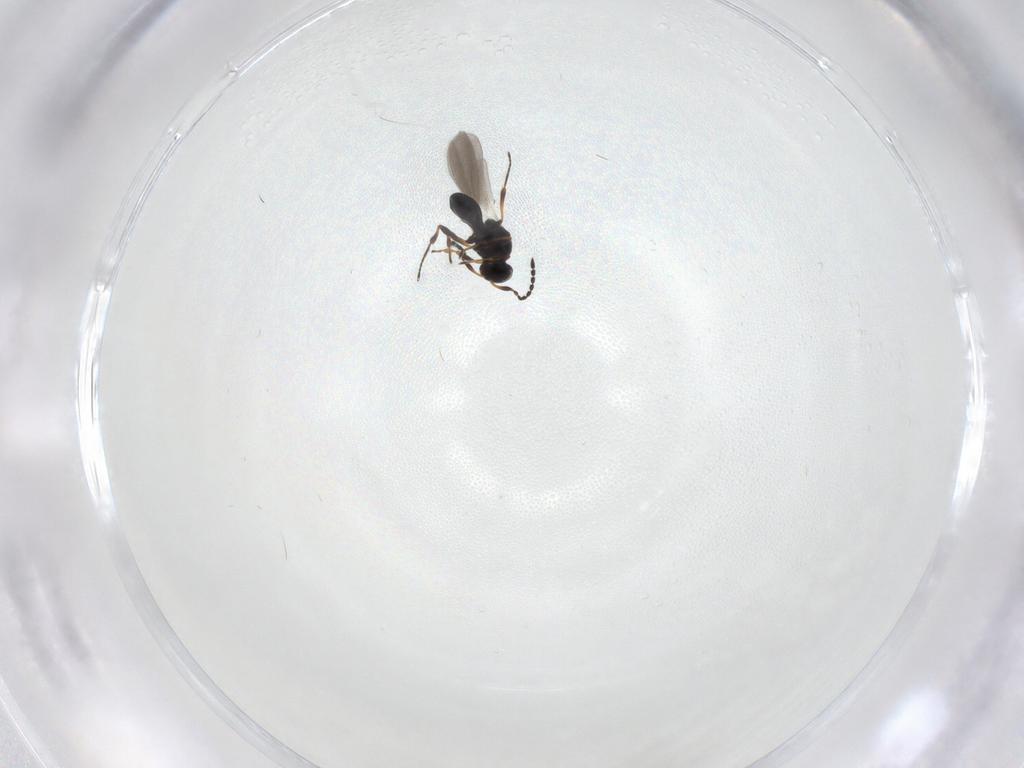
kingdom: Animalia
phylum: Arthropoda
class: Insecta
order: Hymenoptera
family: Platygastridae
